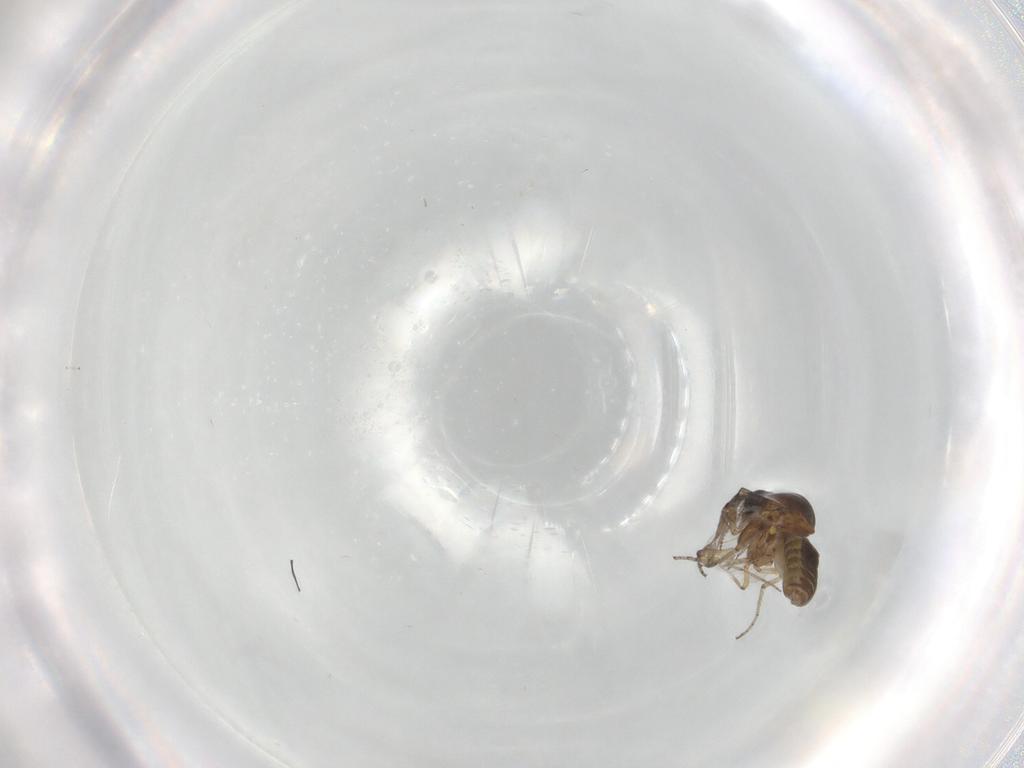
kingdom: Animalia
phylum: Arthropoda
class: Insecta
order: Diptera
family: Ceratopogonidae
